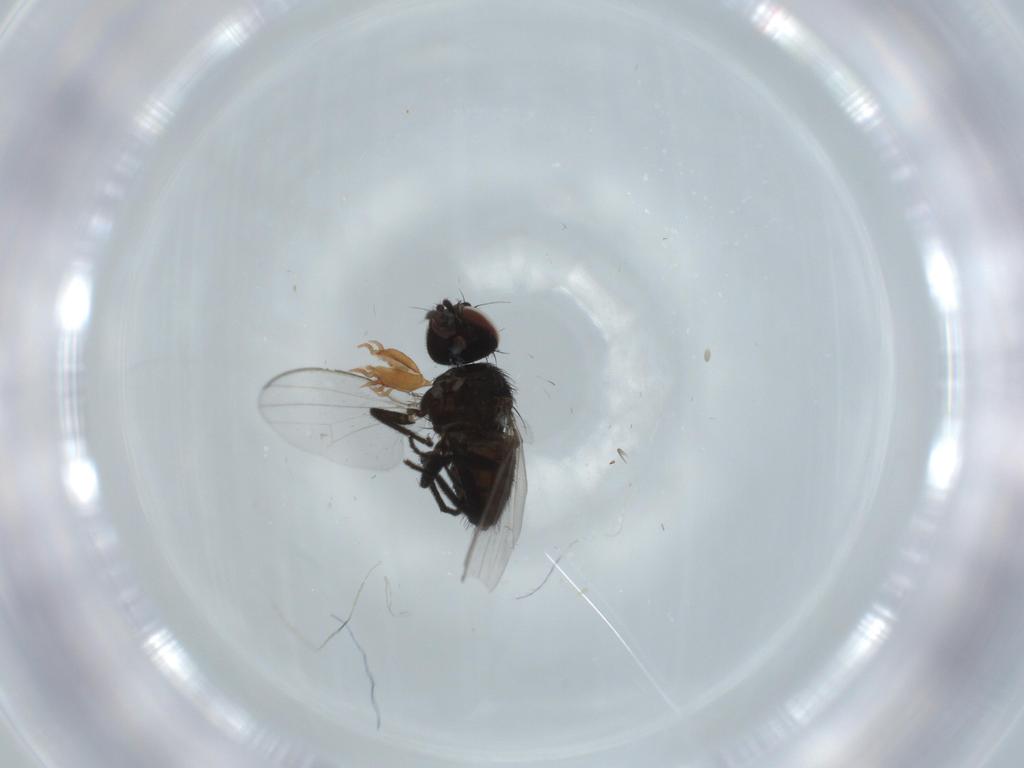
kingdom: Animalia
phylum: Arthropoda
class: Insecta
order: Diptera
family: Milichiidae
